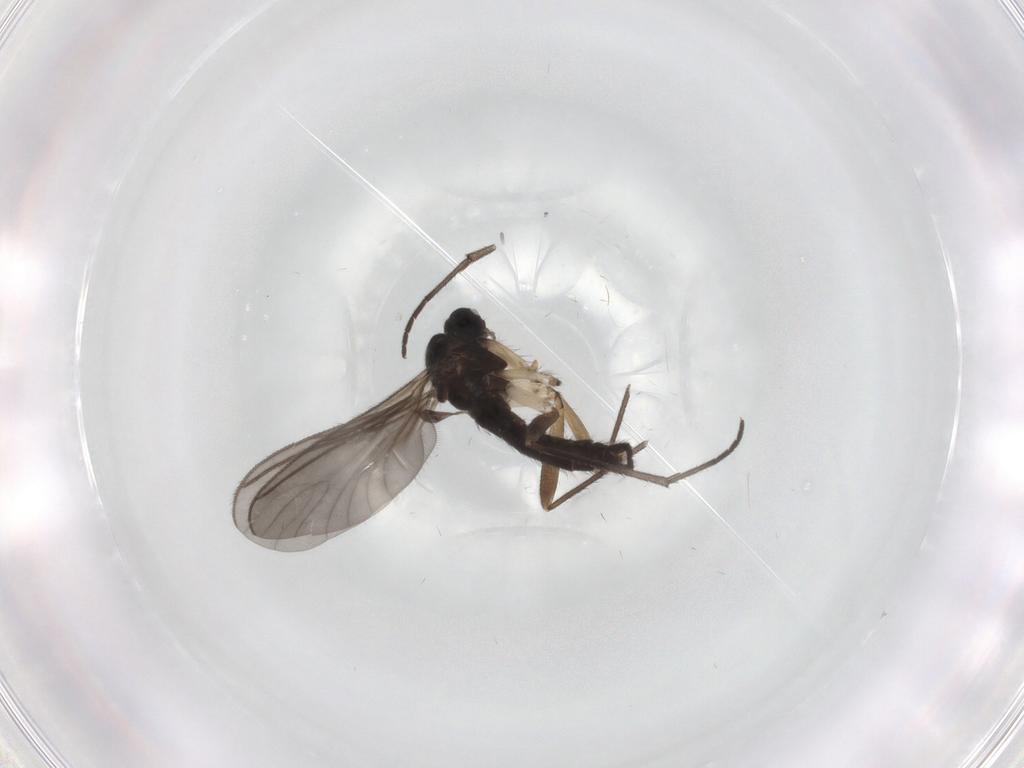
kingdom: Animalia
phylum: Arthropoda
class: Insecta
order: Diptera
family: Sciaridae
